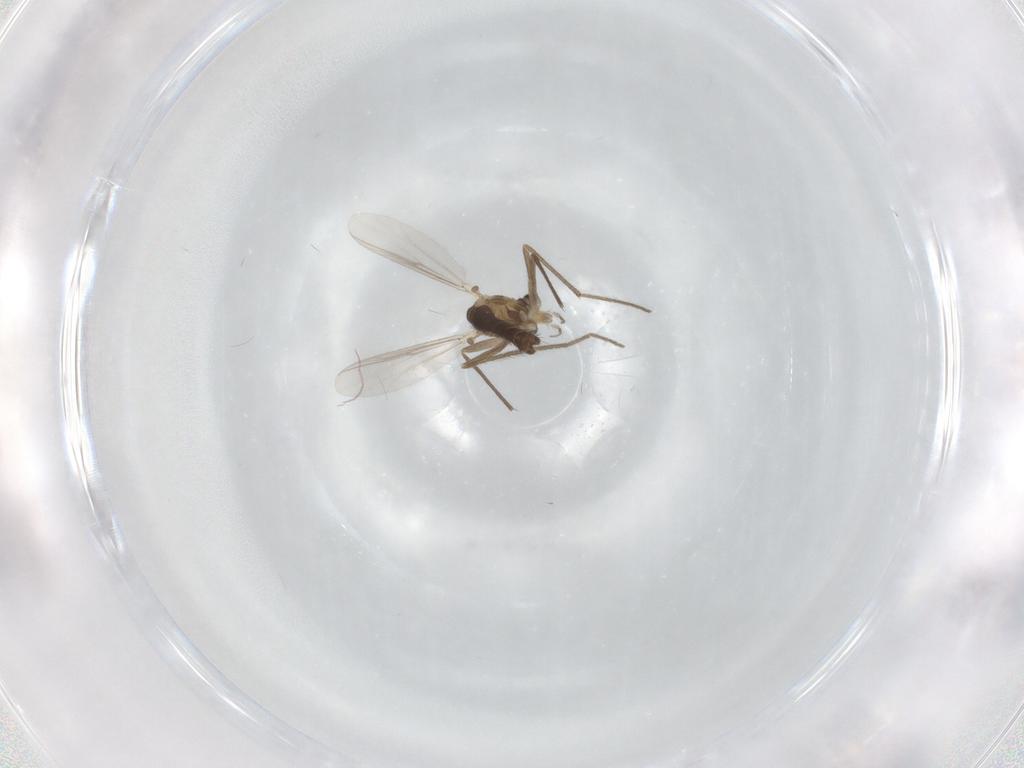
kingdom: Animalia
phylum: Arthropoda
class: Insecta
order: Diptera
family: Chironomidae
